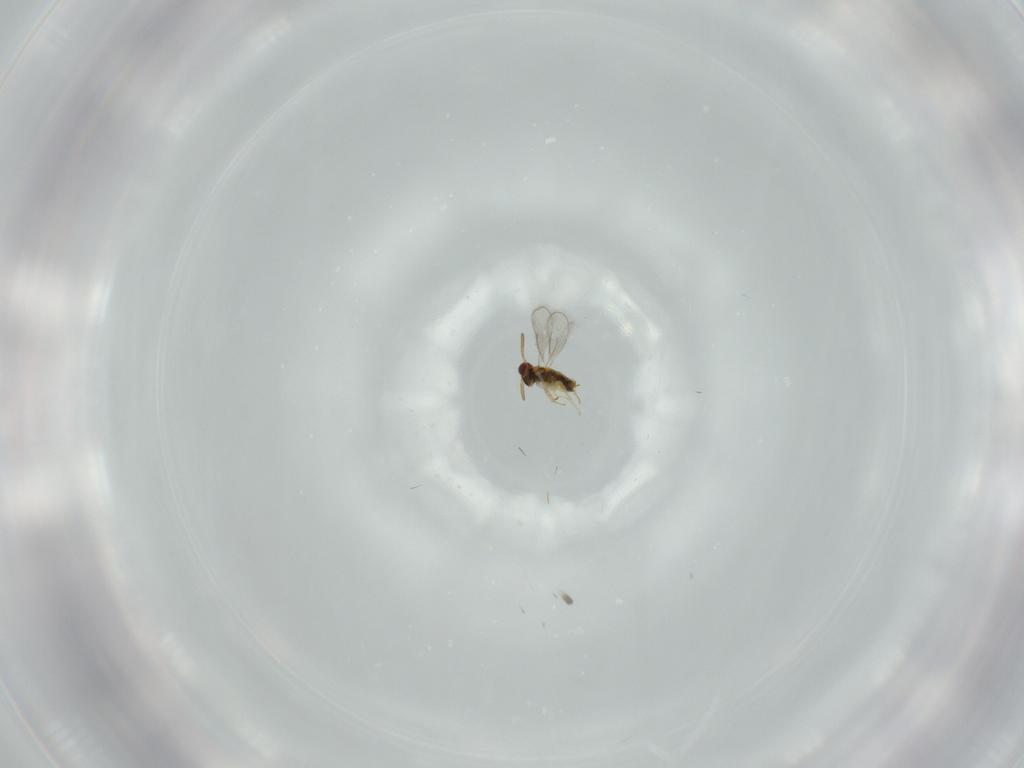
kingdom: Animalia
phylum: Arthropoda
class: Insecta
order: Hymenoptera
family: Aphelinidae
